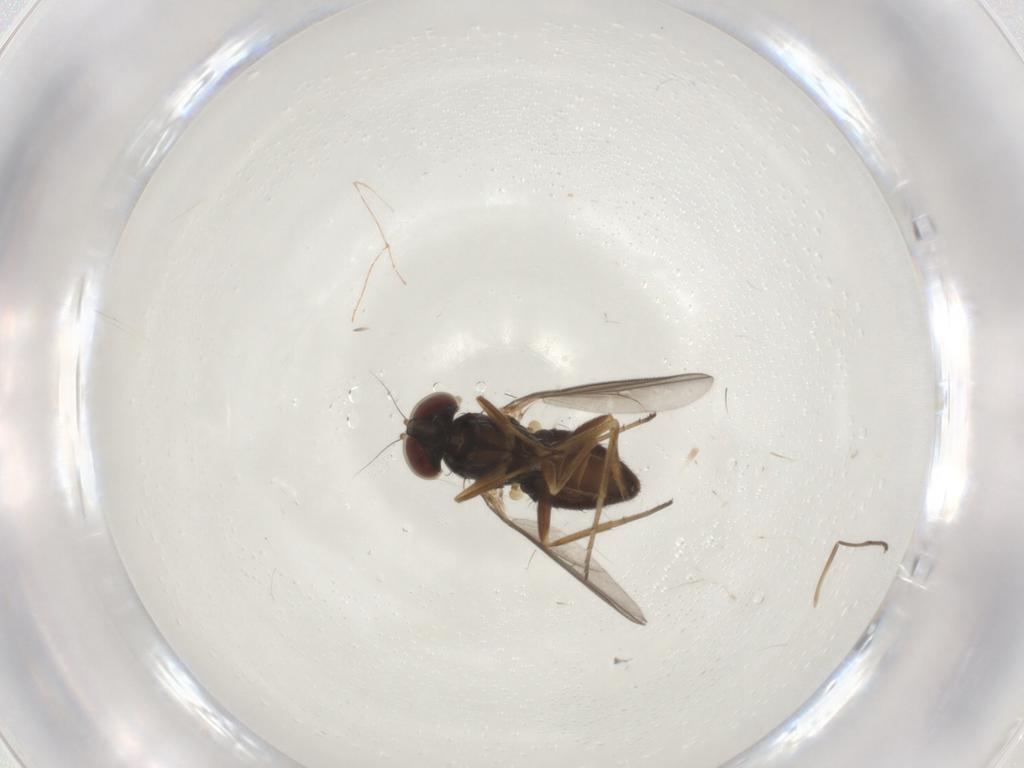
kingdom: Animalia
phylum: Arthropoda
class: Insecta
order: Diptera
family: Dolichopodidae
